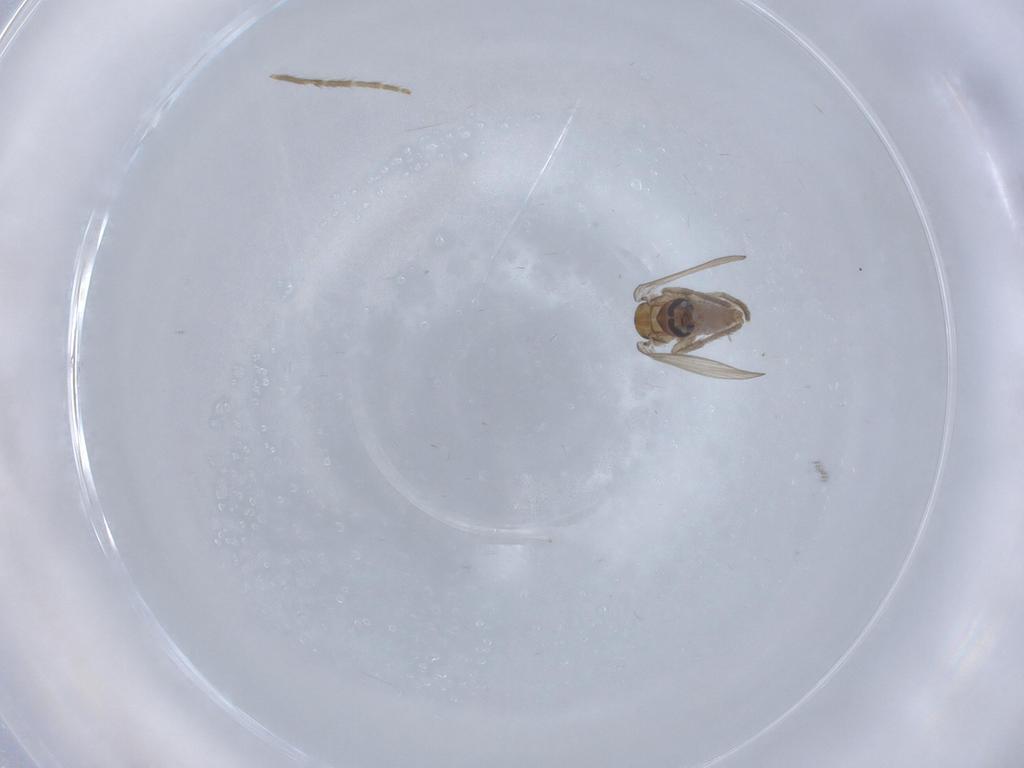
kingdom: Animalia
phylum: Arthropoda
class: Insecta
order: Diptera
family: Psychodidae
